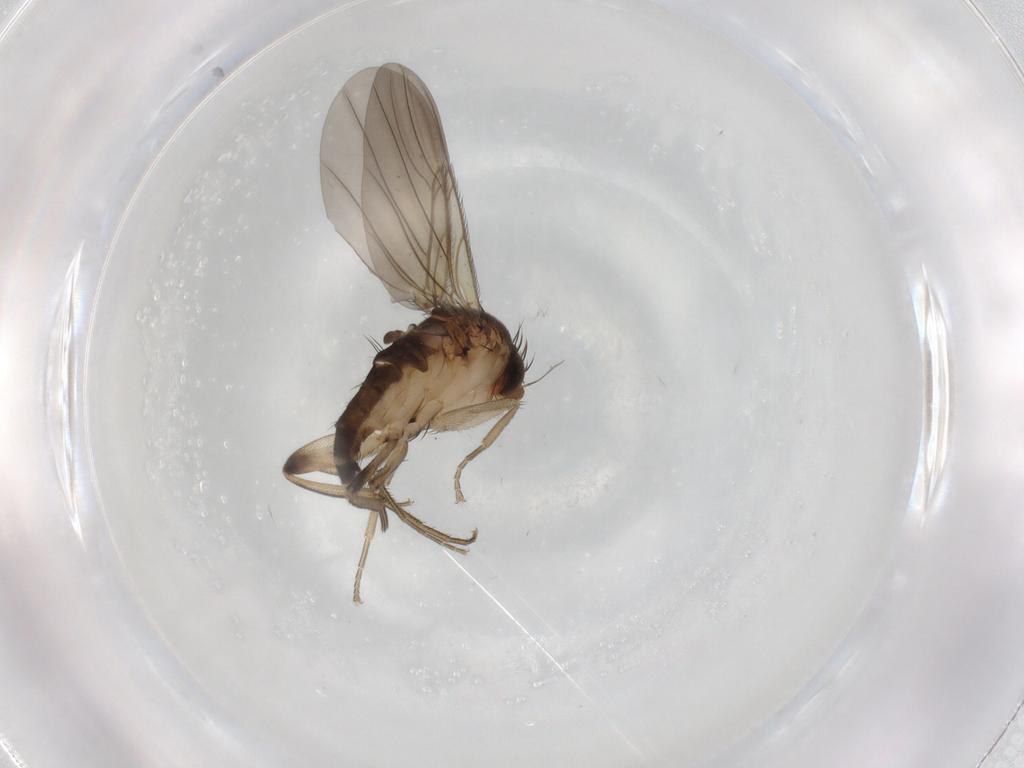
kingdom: Animalia
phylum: Arthropoda
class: Insecta
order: Diptera
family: Phoridae
